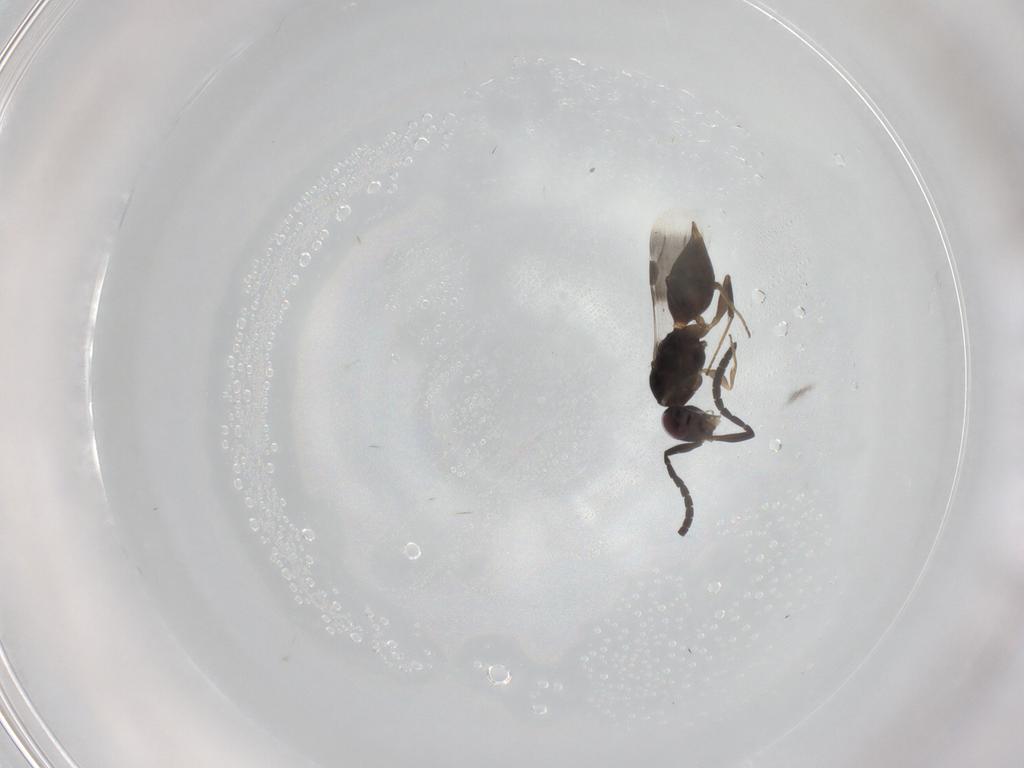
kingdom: Animalia
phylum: Arthropoda
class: Insecta
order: Hymenoptera
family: Megaspilidae
